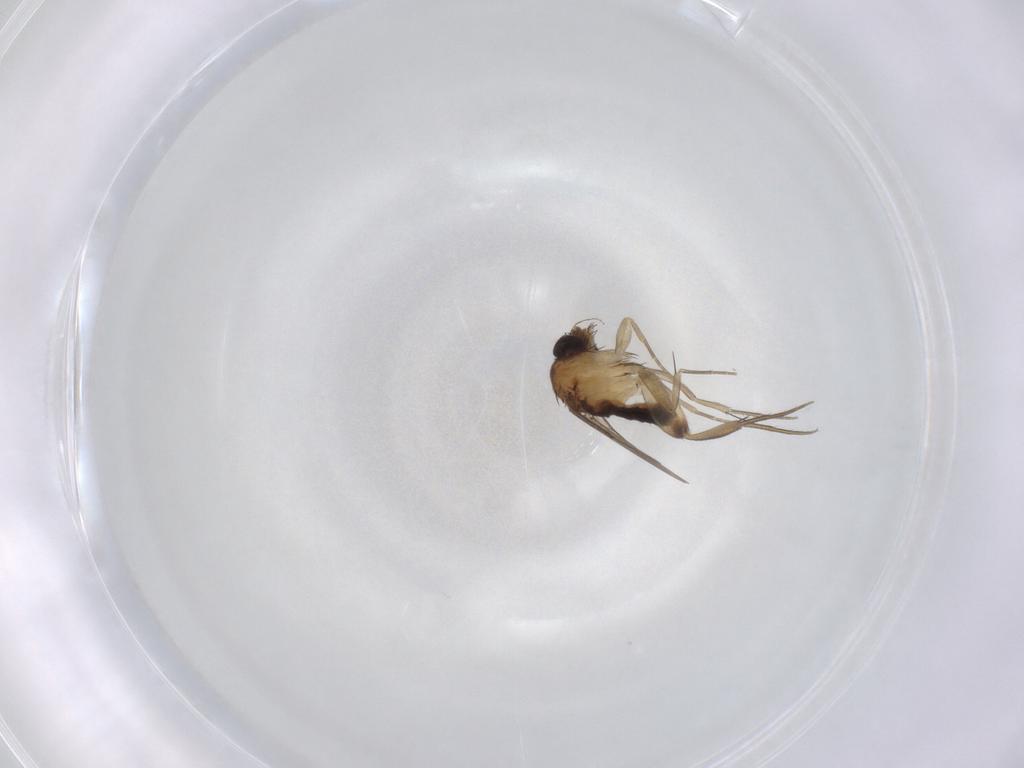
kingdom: Animalia
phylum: Arthropoda
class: Insecta
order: Diptera
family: Phoridae
